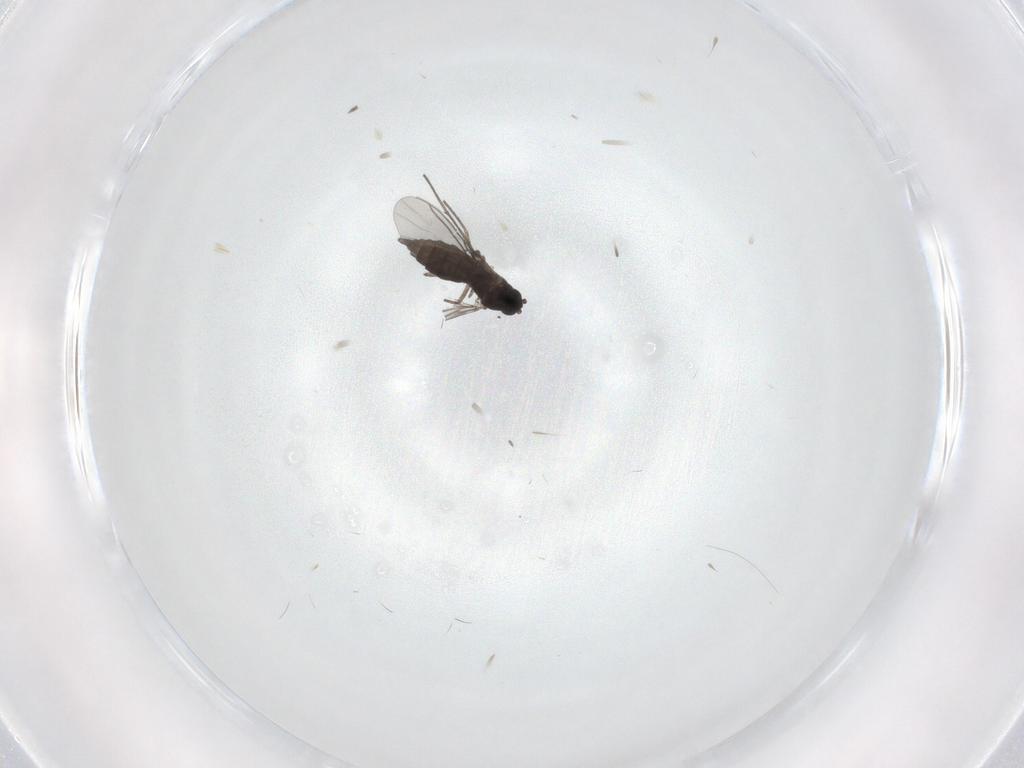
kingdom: Animalia
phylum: Arthropoda
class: Insecta
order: Diptera
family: Sciaridae
